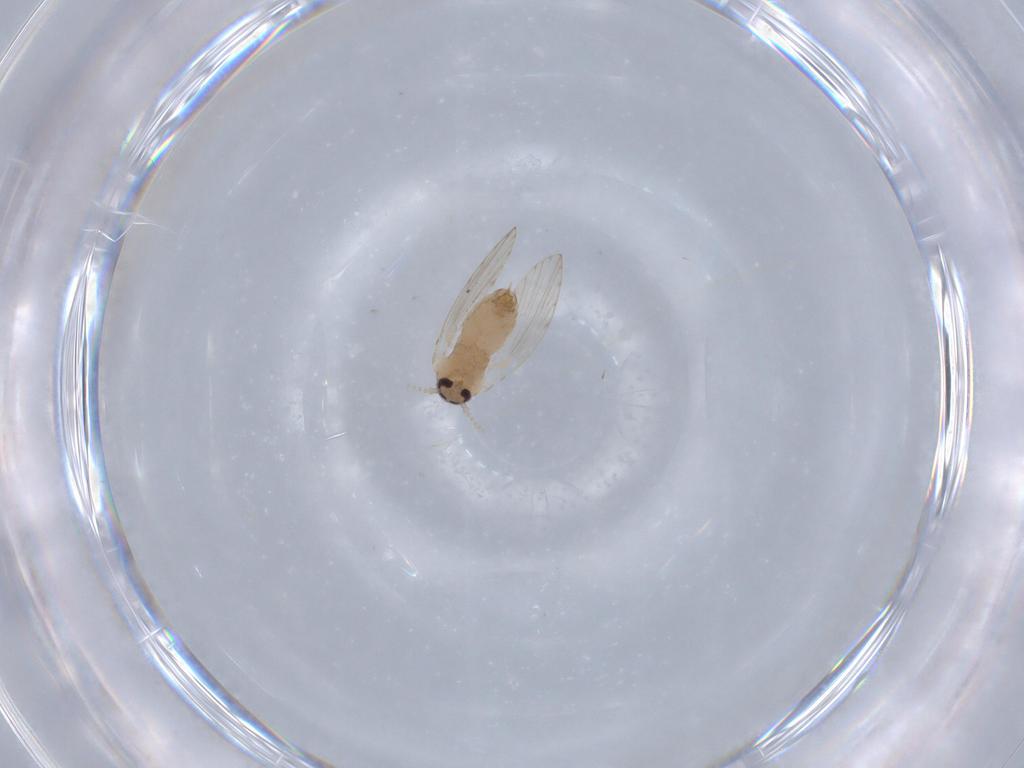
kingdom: Animalia
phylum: Arthropoda
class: Insecta
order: Diptera
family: Psychodidae
